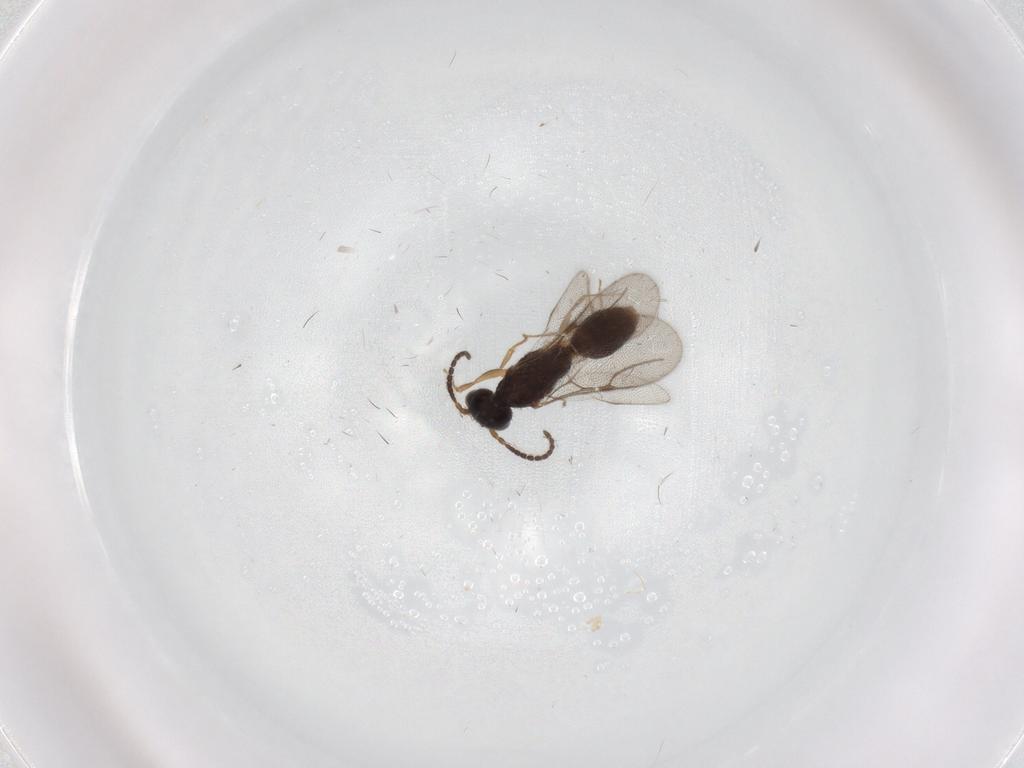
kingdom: Animalia
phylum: Arthropoda
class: Insecta
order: Hymenoptera
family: Bethylidae
